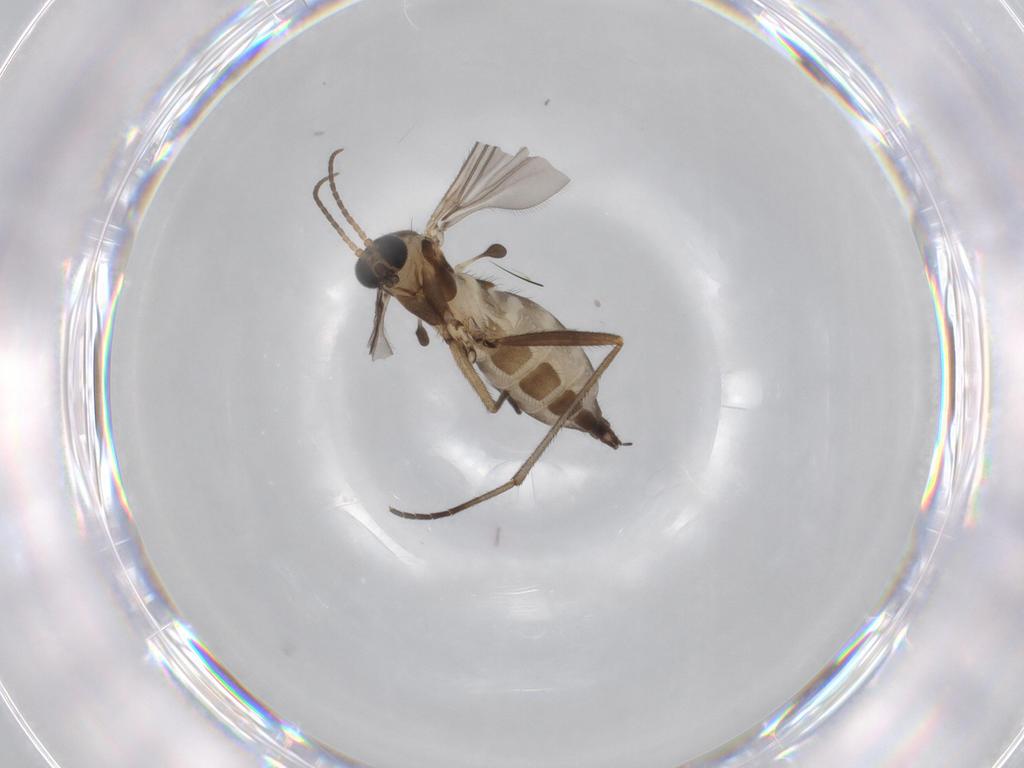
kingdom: Animalia
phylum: Arthropoda
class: Insecta
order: Diptera
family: Sciaridae
